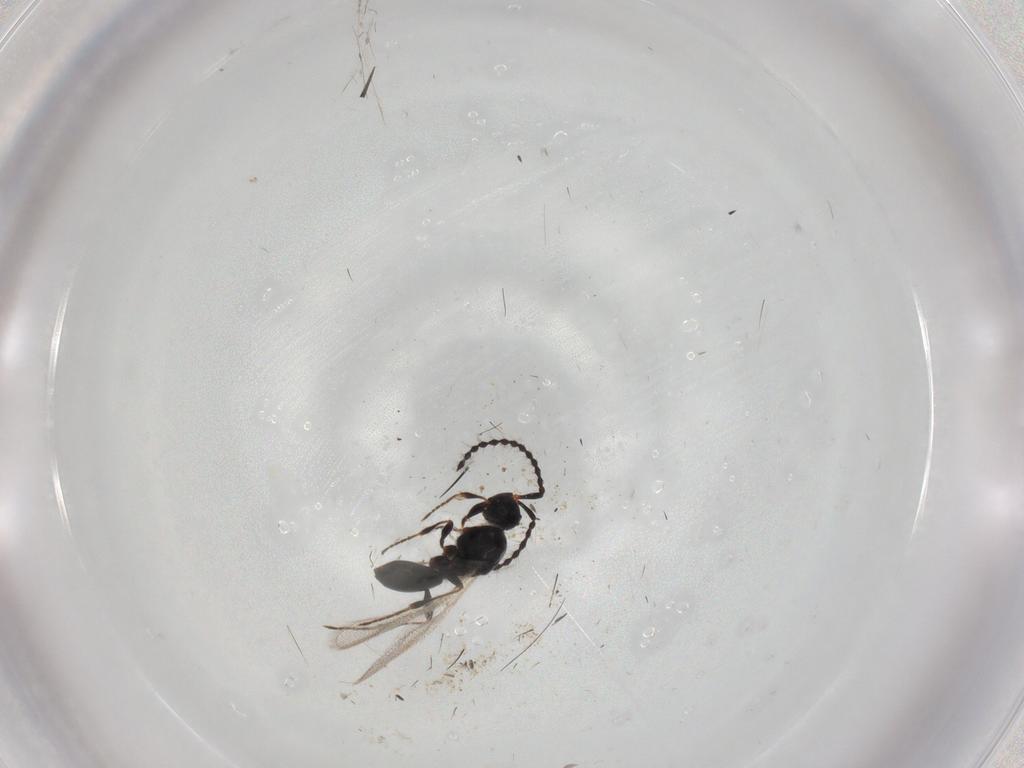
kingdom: Animalia
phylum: Arthropoda
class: Insecta
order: Hymenoptera
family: Diapriidae
